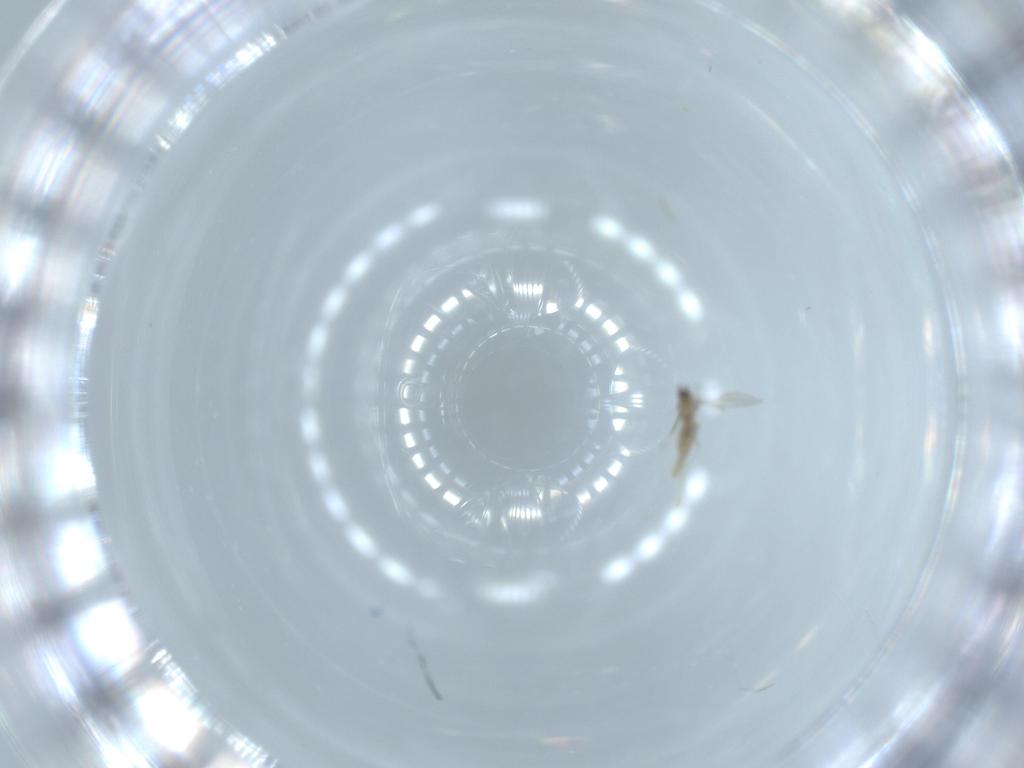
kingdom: Animalia
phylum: Arthropoda
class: Insecta
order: Diptera
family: Cecidomyiidae
